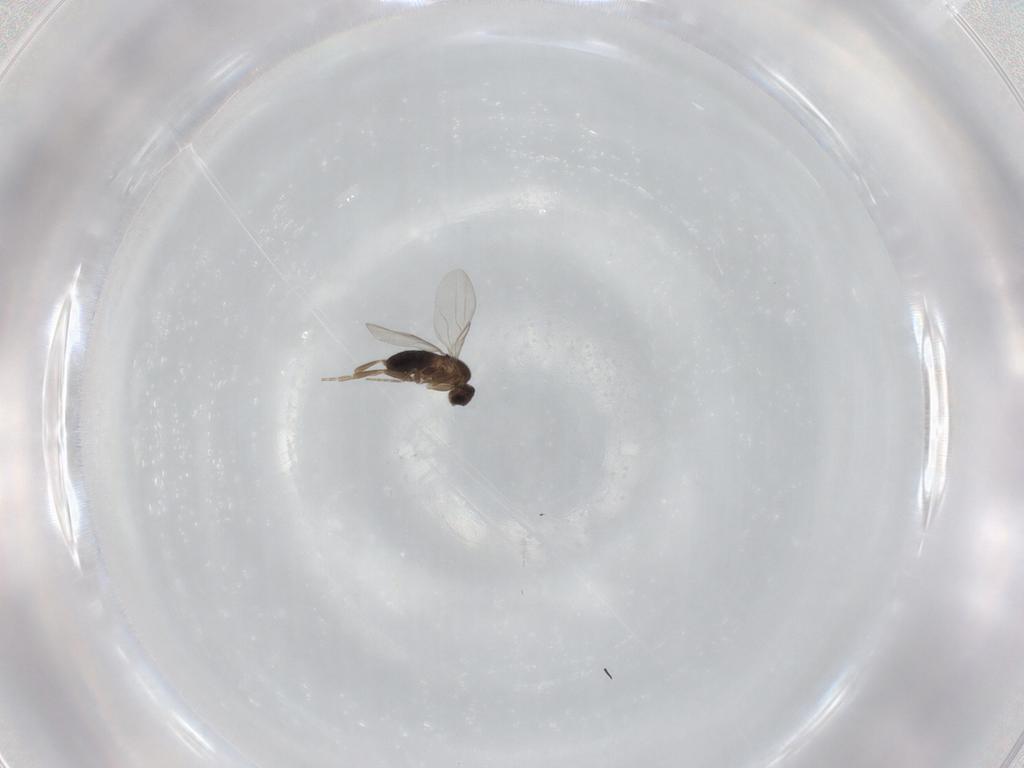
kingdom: Animalia
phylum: Arthropoda
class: Insecta
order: Diptera
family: Phoridae
